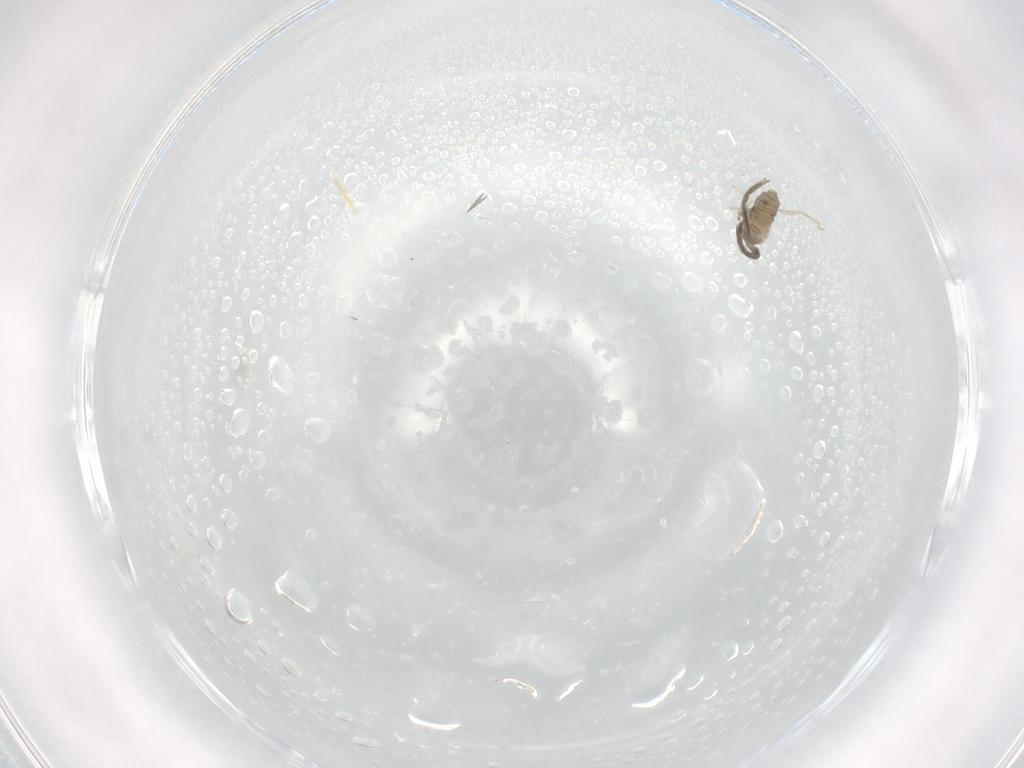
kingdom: Animalia
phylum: Arthropoda
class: Insecta
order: Diptera
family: Cecidomyiidae
